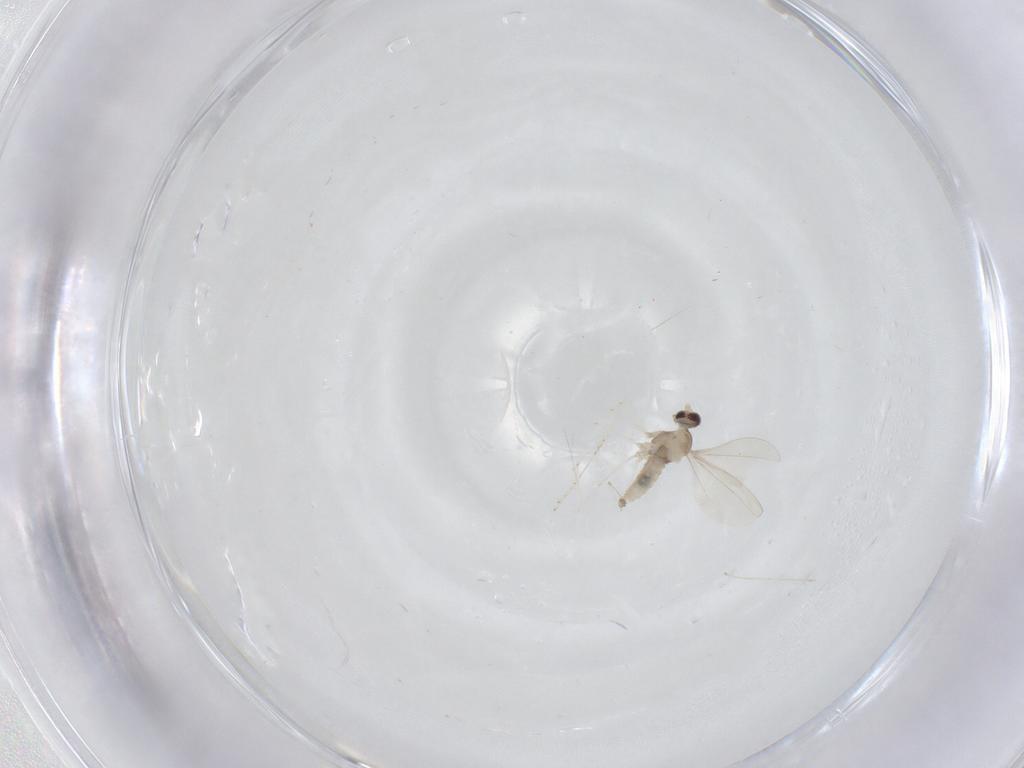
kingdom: Animalia
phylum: Arthropoda
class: Insecta
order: Diptera
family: Cecidomyiidae
